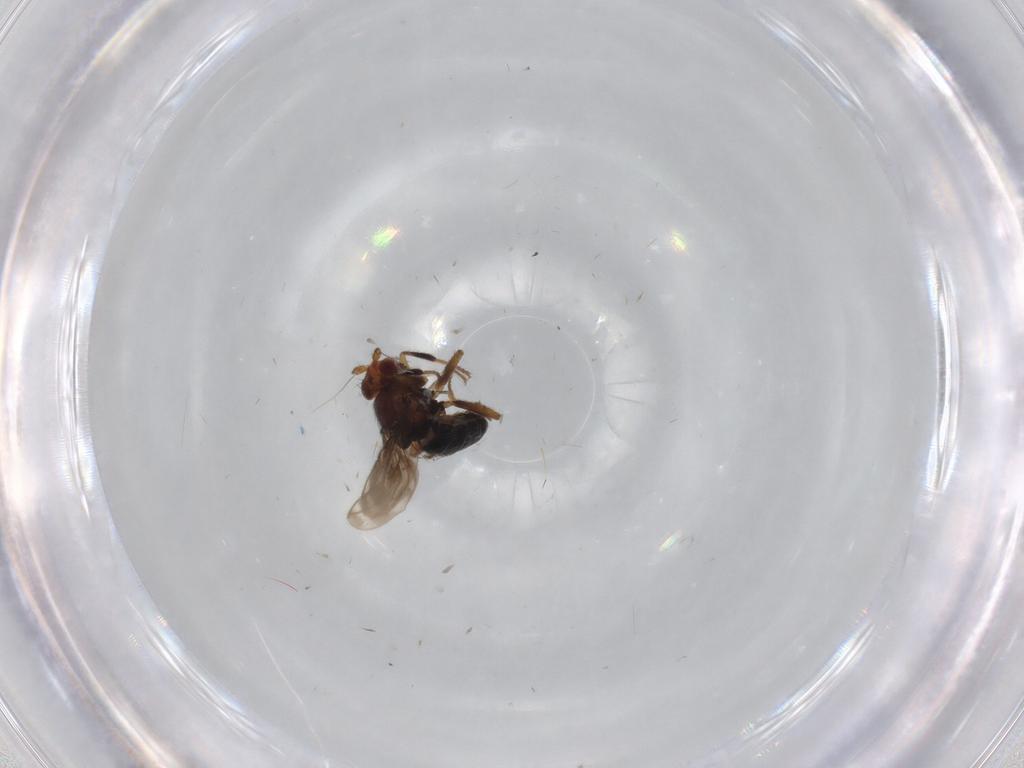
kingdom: Animalia
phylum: Arthropoda
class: Insecta
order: Diptera
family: Sphaeroceridae
